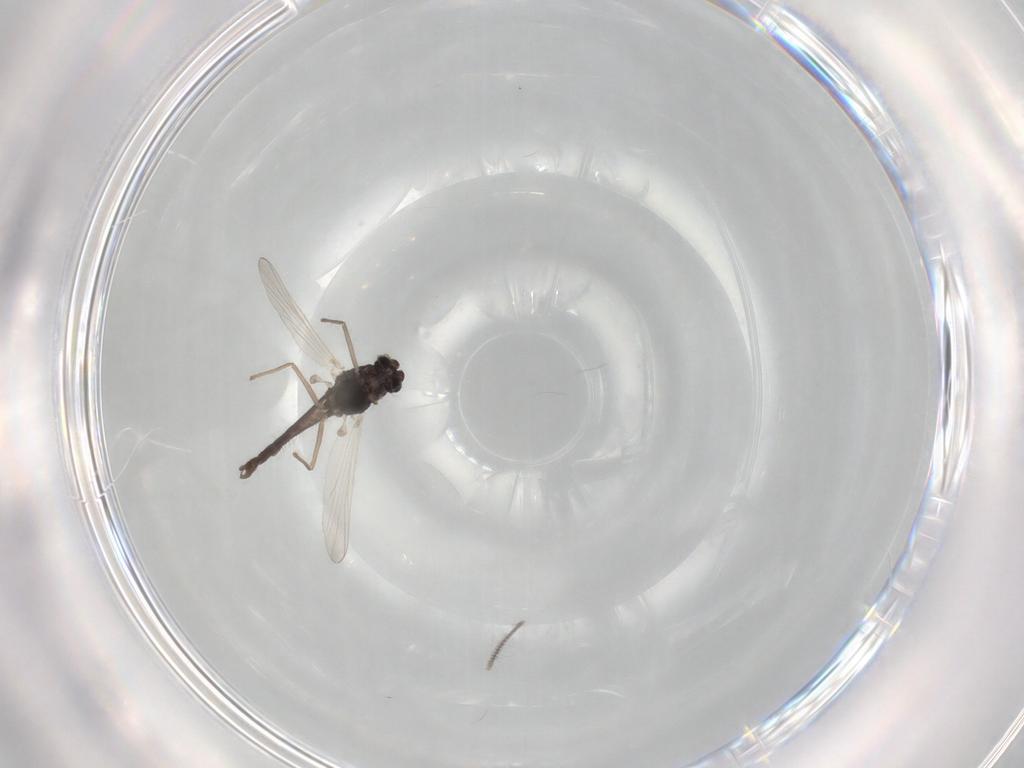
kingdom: Animalia
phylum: Arthropoda
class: Insecta
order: Diptera
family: Chironomidae
